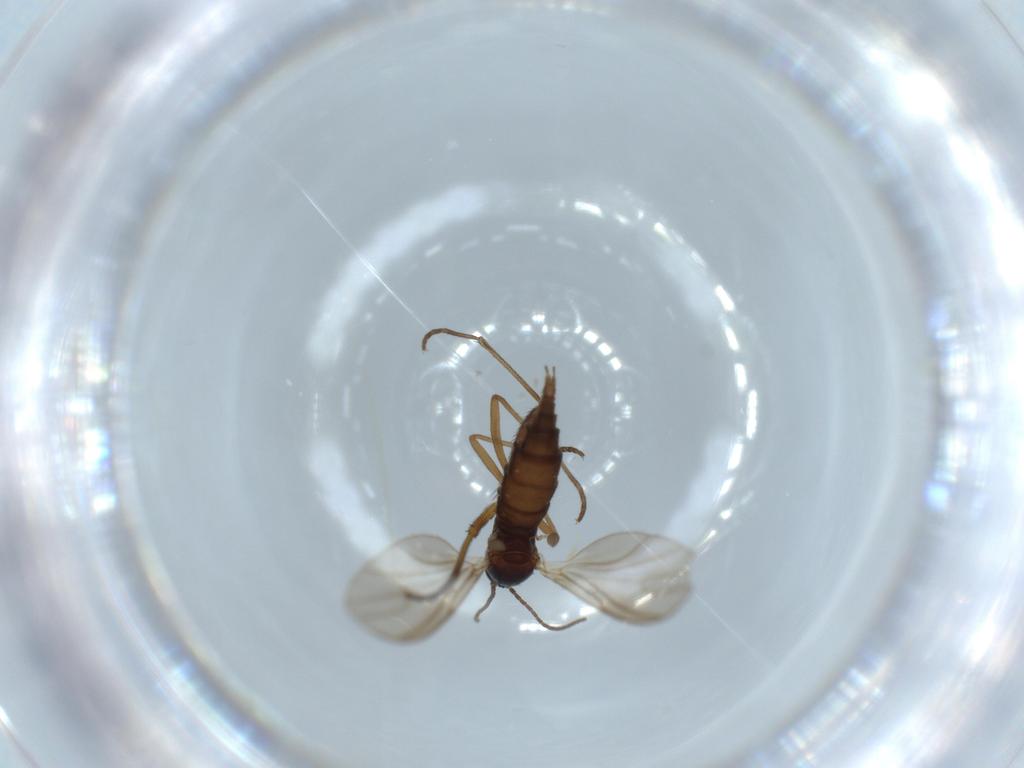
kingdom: Animalia
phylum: Arthropoda
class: Insecta
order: Diptera
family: Sciaridae
